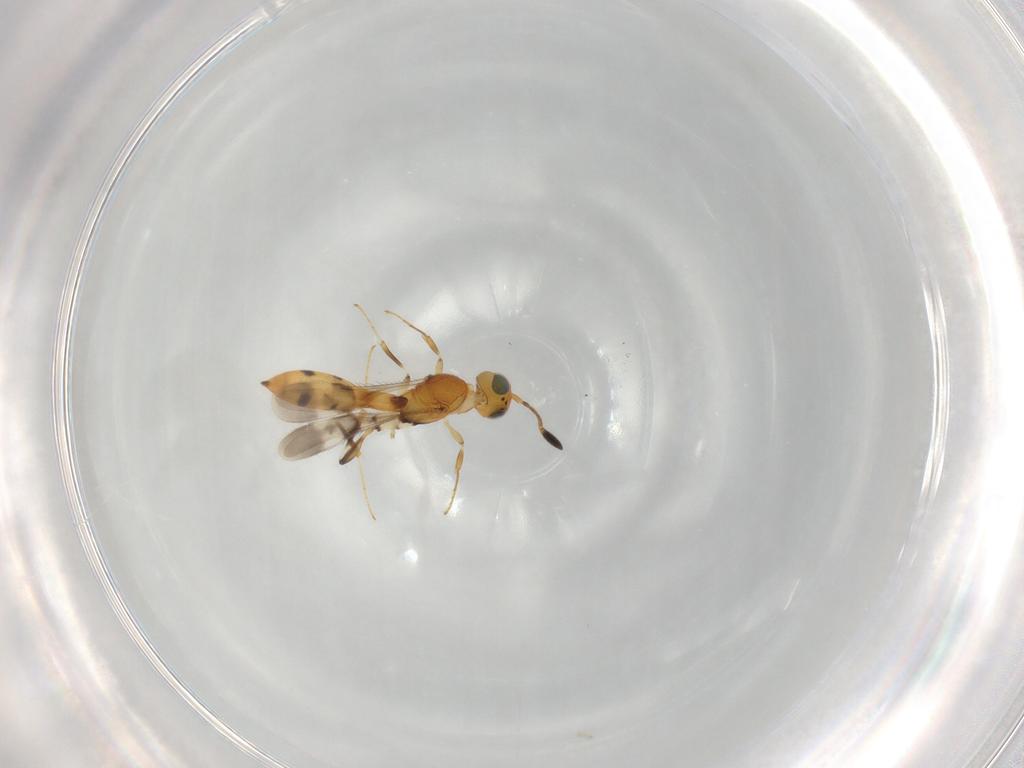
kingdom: Animalia
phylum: Arthropoda
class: Insecta
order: Hymenoptera
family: Scelionidae
